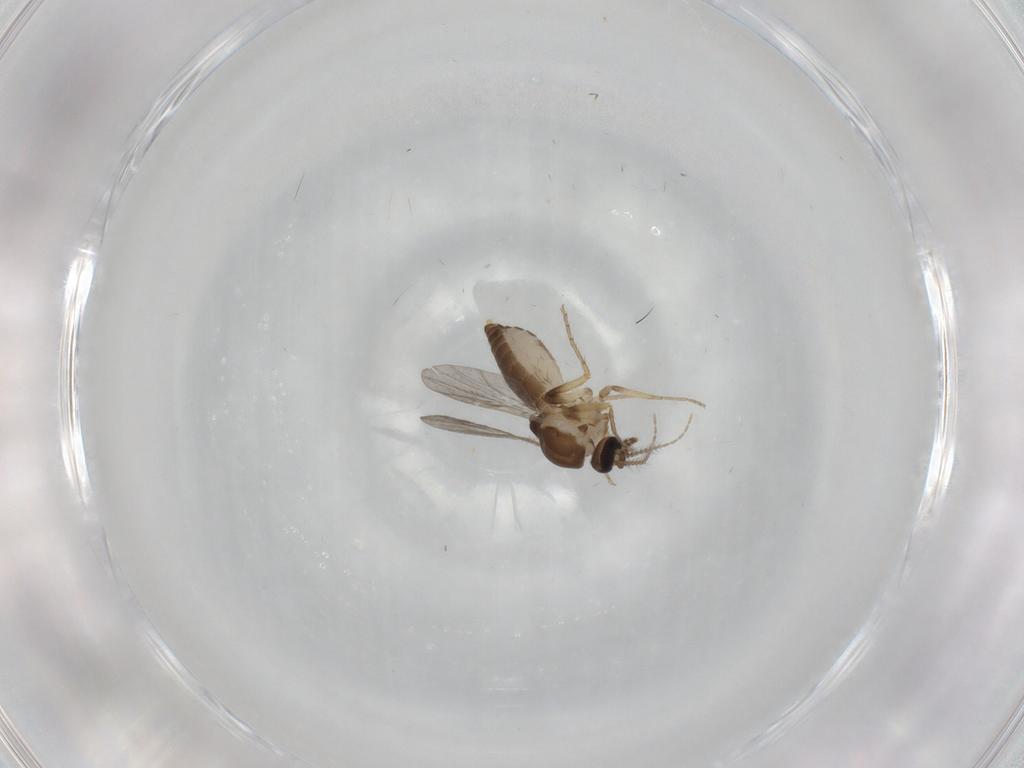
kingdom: Animalia
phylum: Arthropoda
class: Insecta
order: Diptera
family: Ceratopogonidae
